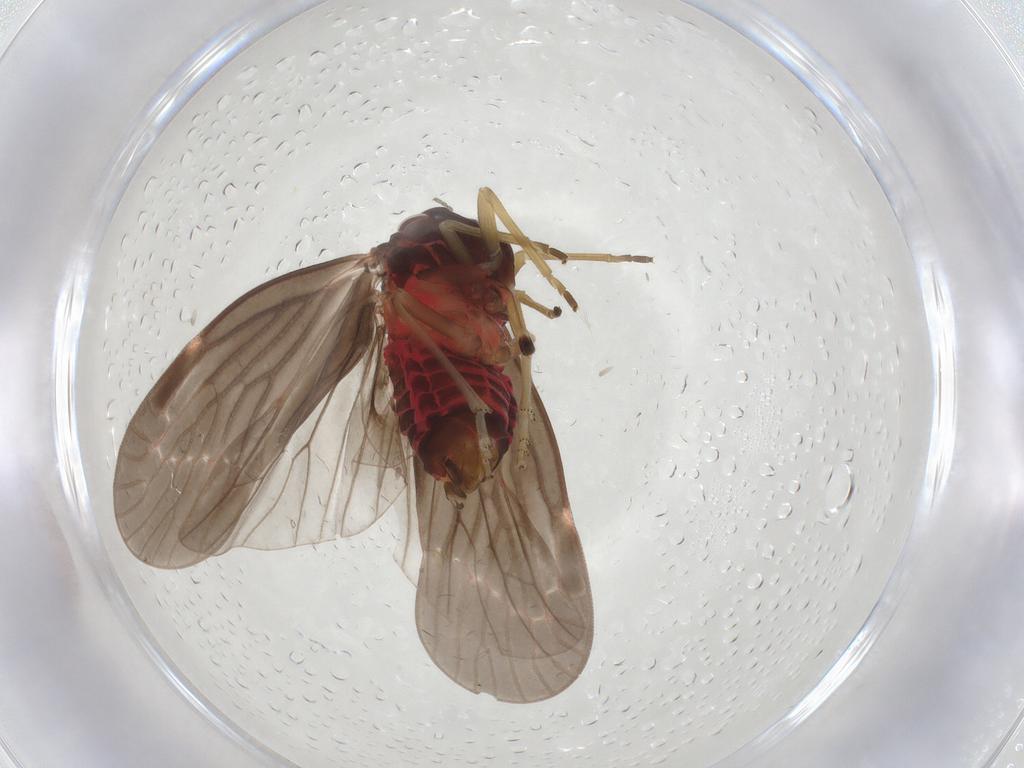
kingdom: Animalia
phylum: Arthropoda
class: Insecta
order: Hemiptera
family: Derbidae
